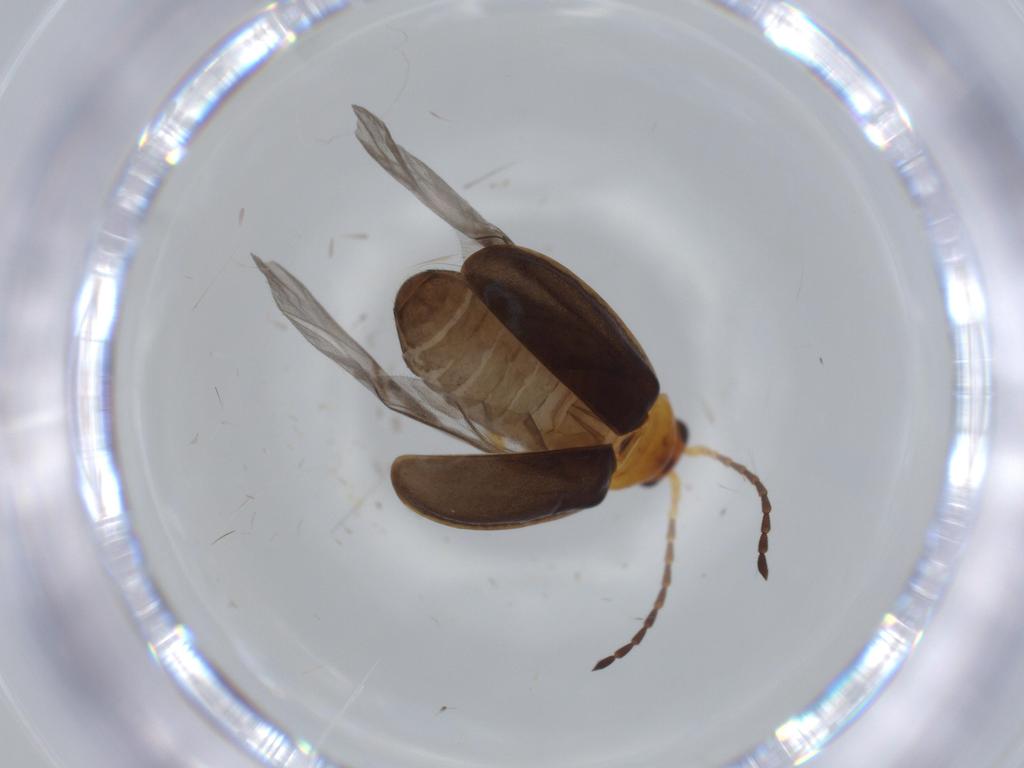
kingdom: Animalia
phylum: Arthropoda
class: Insecta
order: Coleoptera
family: Chrysomelidae
